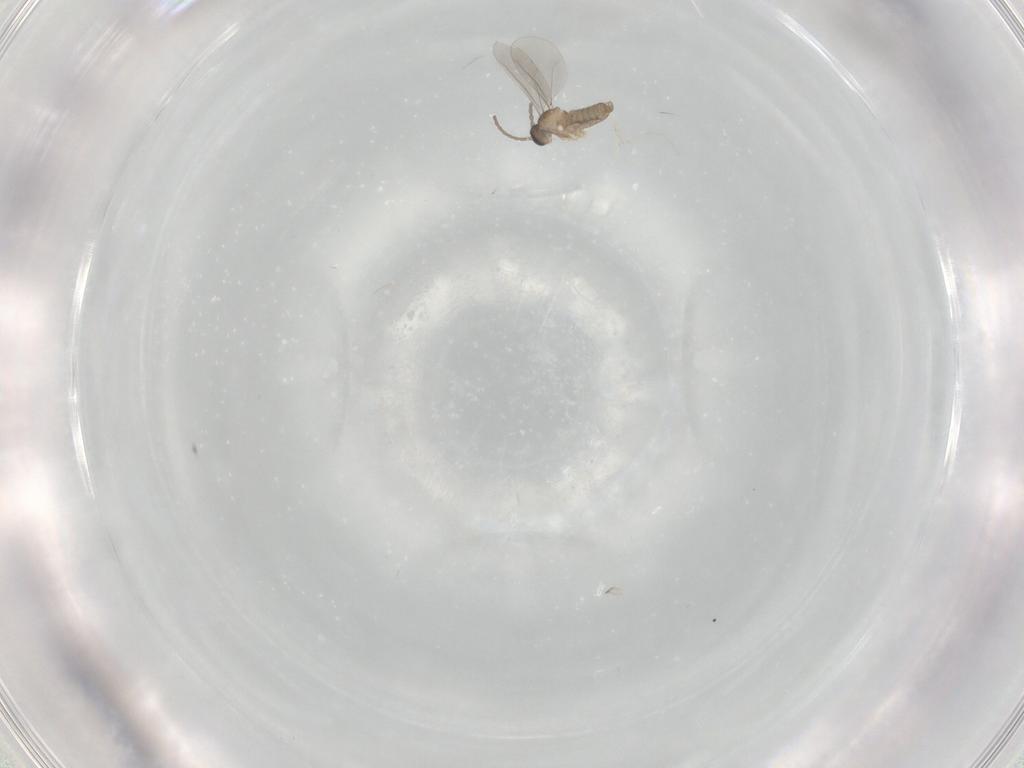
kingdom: Animalia
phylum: Arthropoda
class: Insecta
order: Diptera
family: Cecidomyiidae
